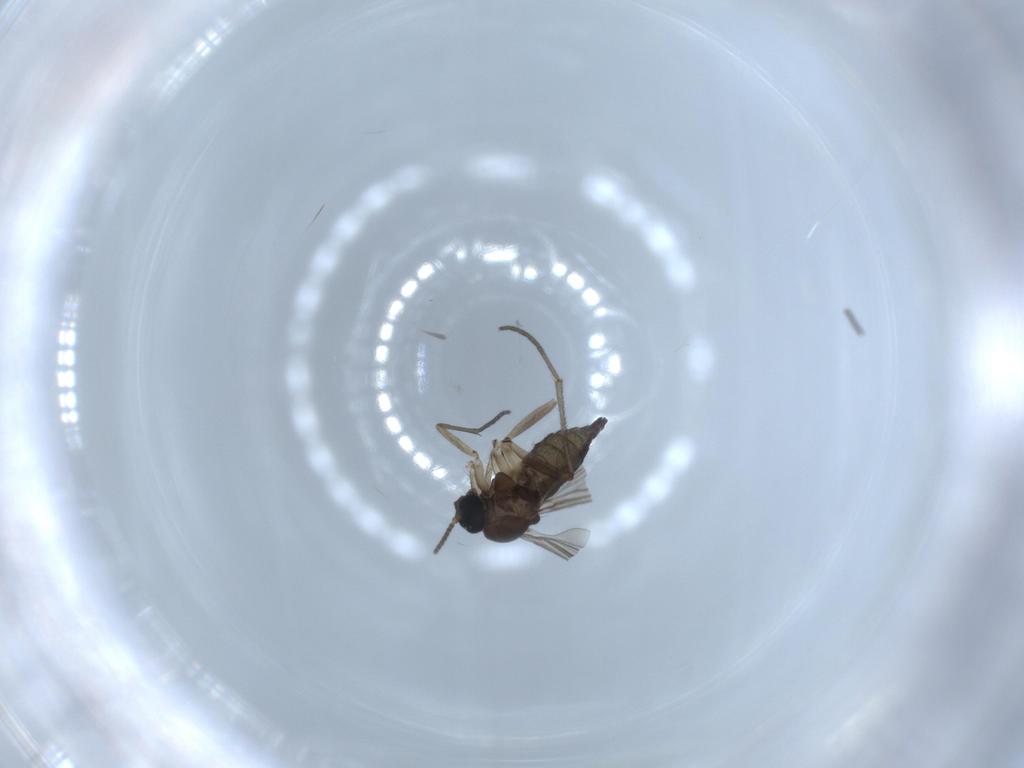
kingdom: Animalia
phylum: Arthropoda
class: Insecta
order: Diptera
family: Sciaridae
